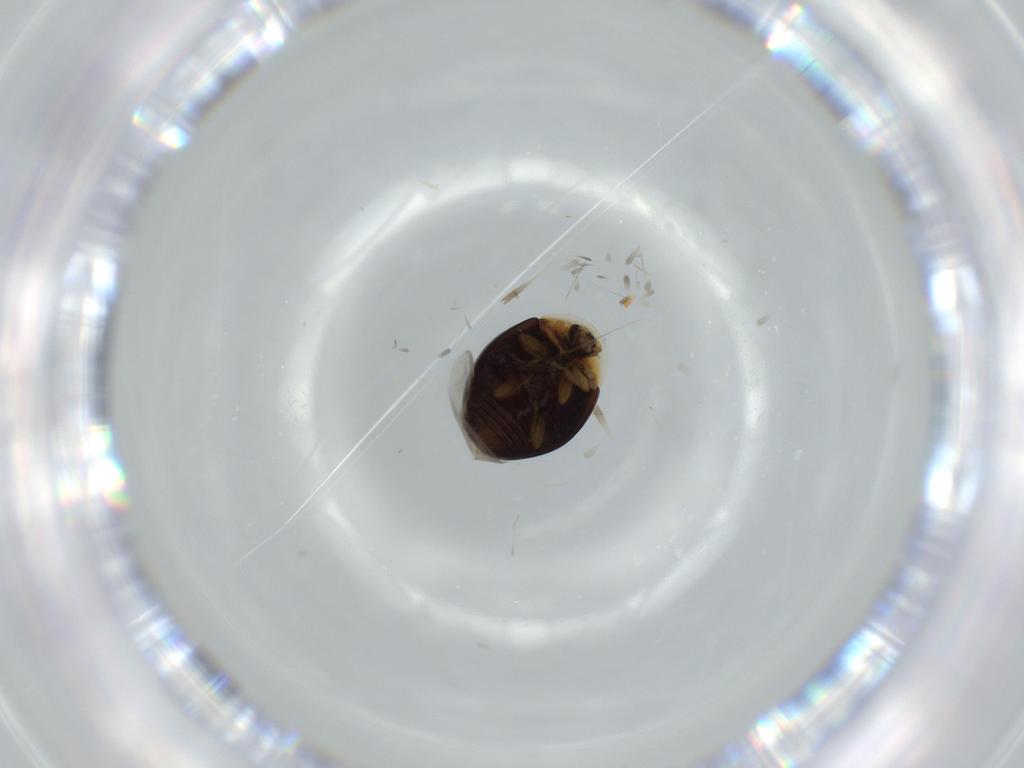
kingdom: Animalia
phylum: Arthropoda
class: Insecta
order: Coleoptera
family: Corylophidae
